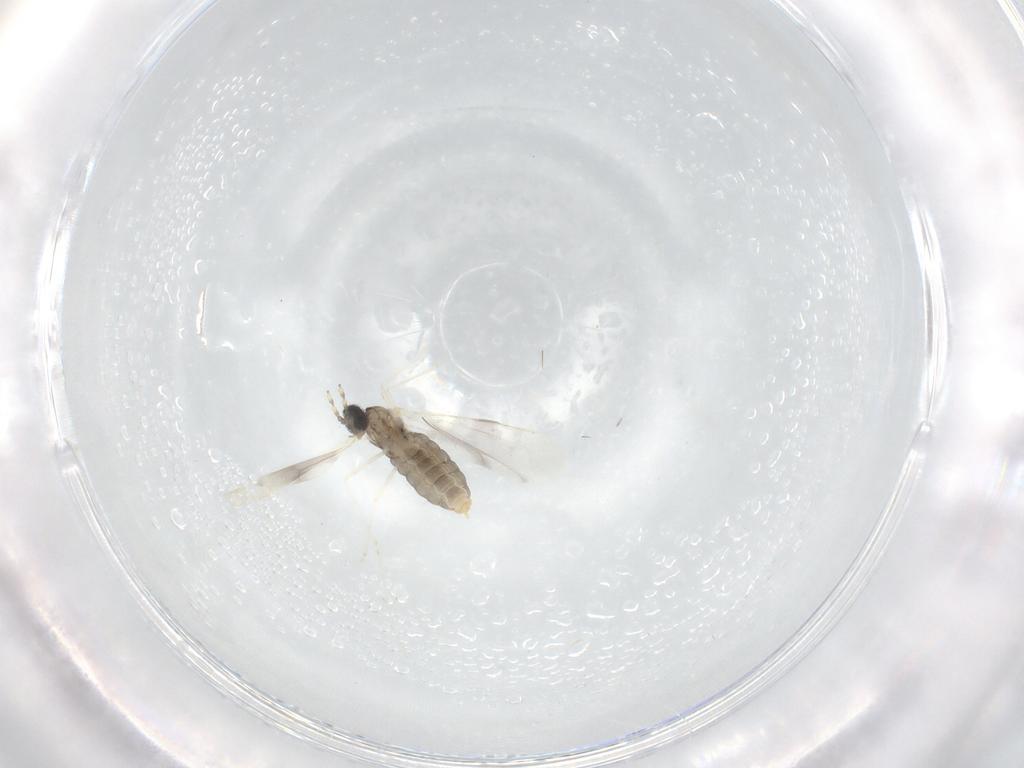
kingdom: Animalia
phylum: Arthropoda
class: Insecta
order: Diptera
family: Cecidomyiidae
